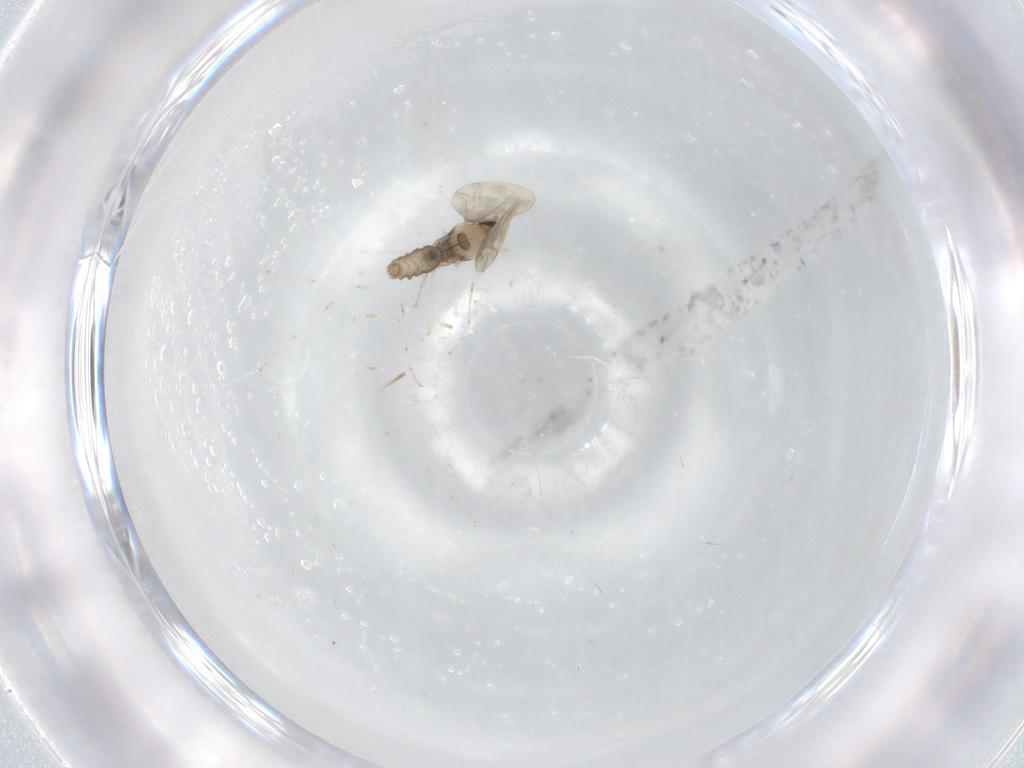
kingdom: Animalia
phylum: Arthropoda
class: Insecta
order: Diptera
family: Cecidomyiidae
